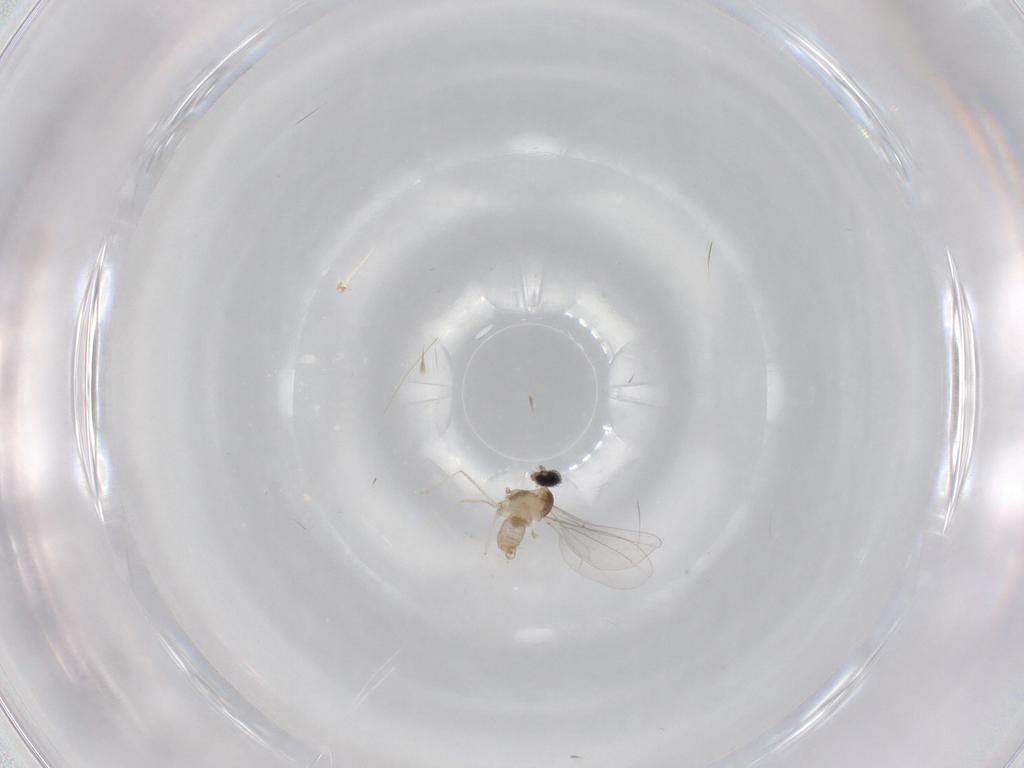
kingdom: Animalia
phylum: Arthropoda
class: Insecta
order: Diptera
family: Cecidomyiidae
